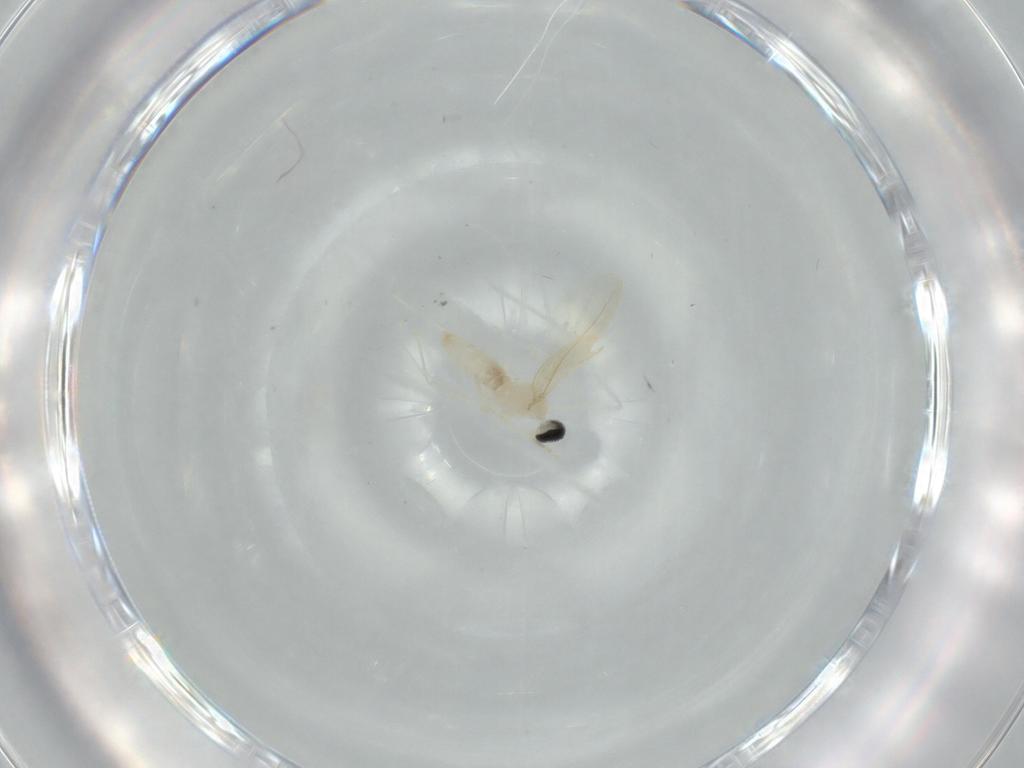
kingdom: Animalia
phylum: Arthropoda
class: Insecta
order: Diptera
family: Cecidomyiidae
